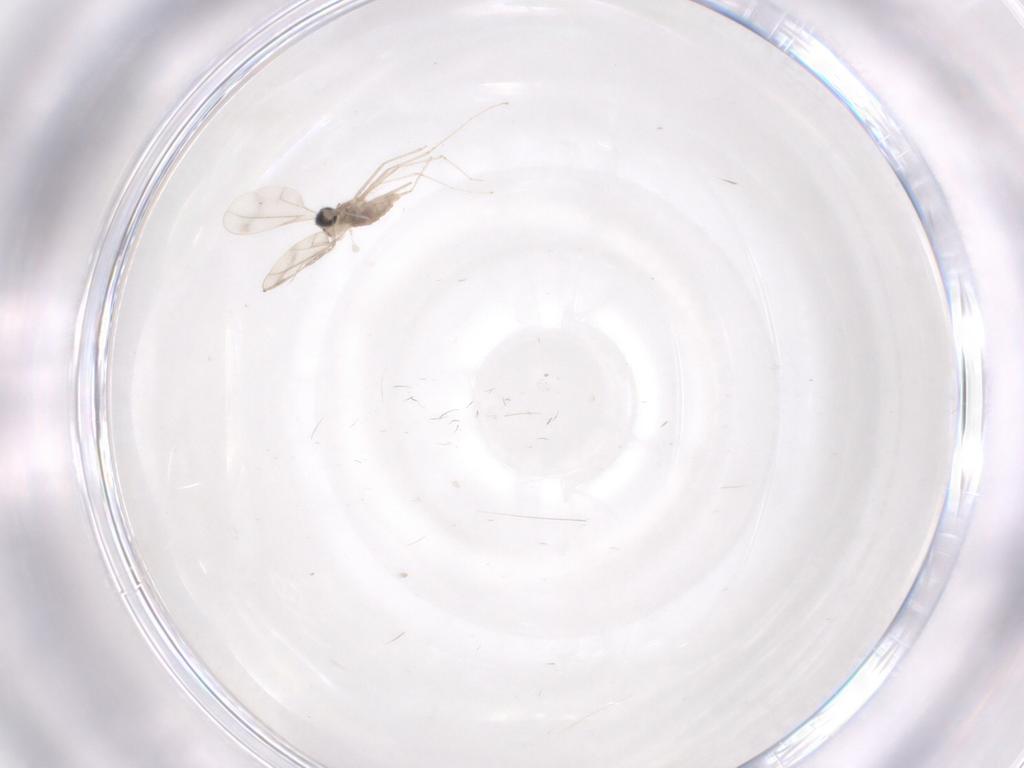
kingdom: Animalia
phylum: Arthropoda
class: Insecta
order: Diptera
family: Cecidomyiidae
